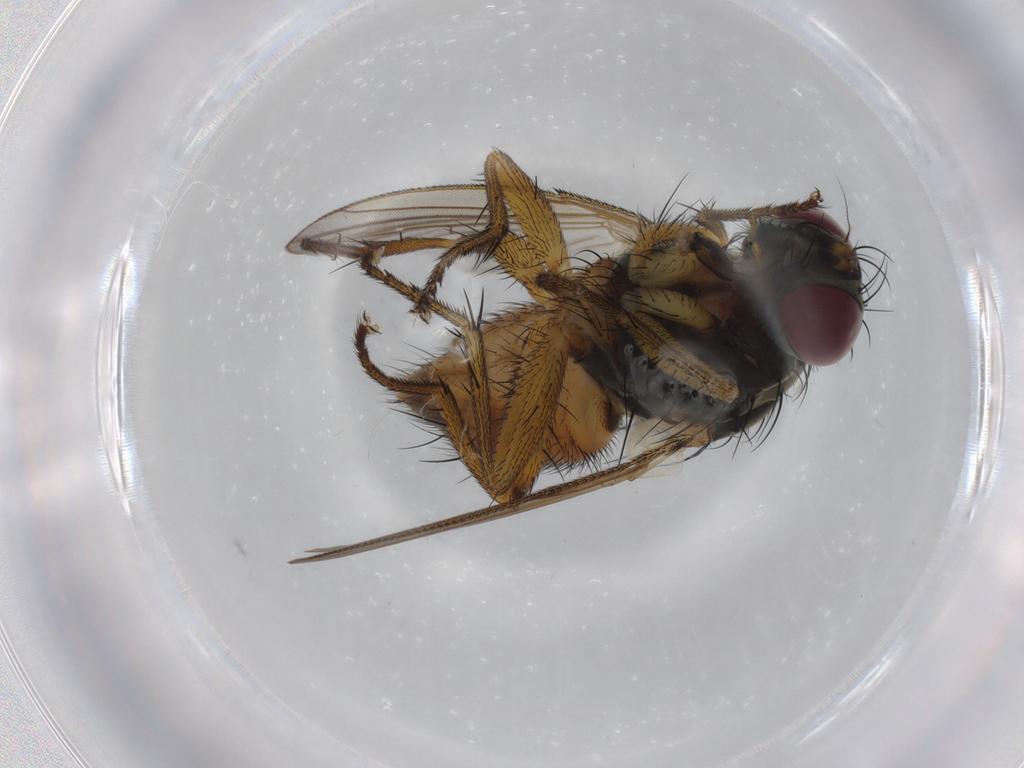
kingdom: Animalia
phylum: Arthropoda
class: Insecta
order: Diptera
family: Muscidae
